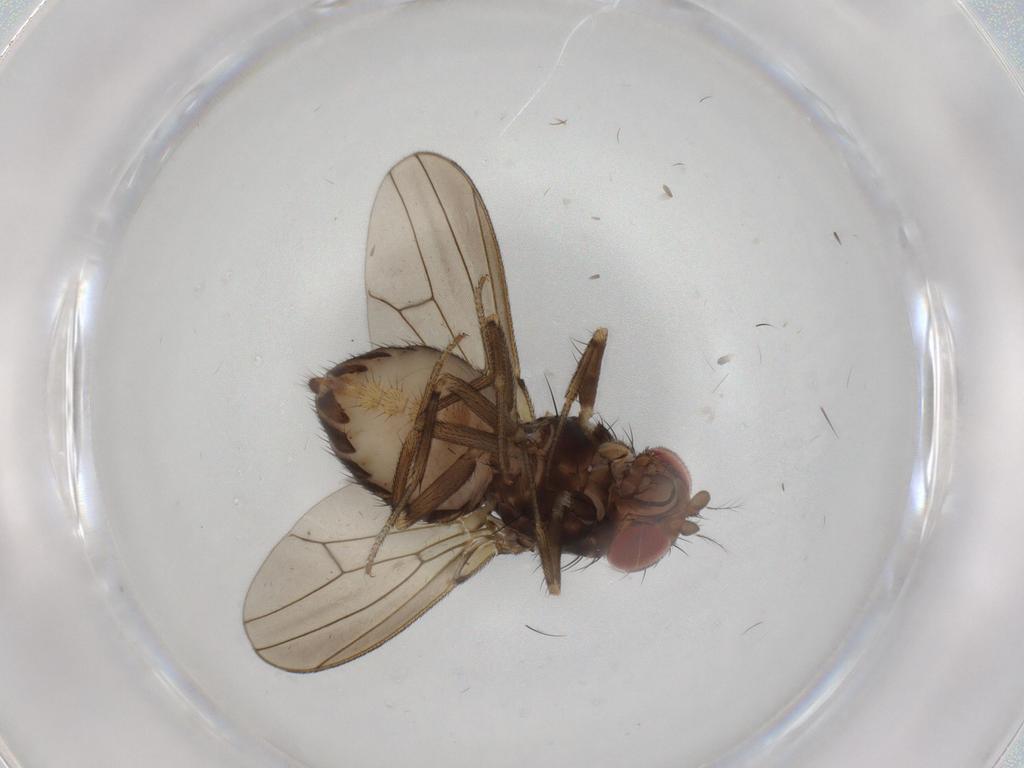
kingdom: Animalia
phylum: Arthropoda
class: Insecta
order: Diptera
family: Drosophilidae
